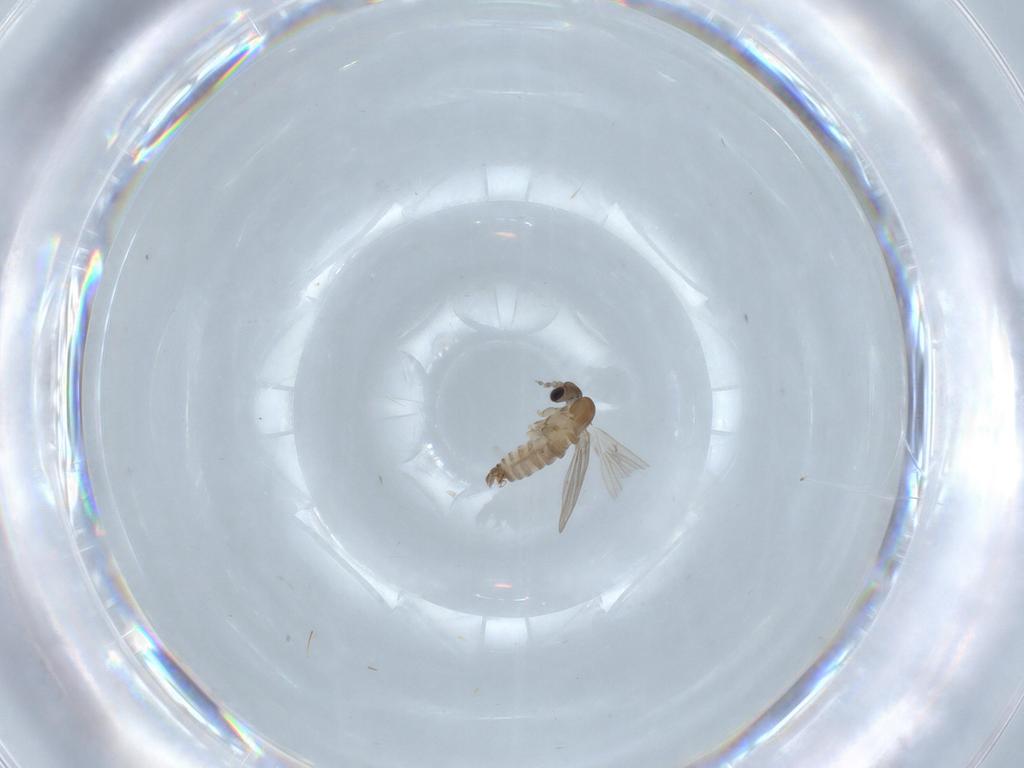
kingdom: Animalia
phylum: Arthropoda
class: Insecta
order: Diptera
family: Psychodidae
